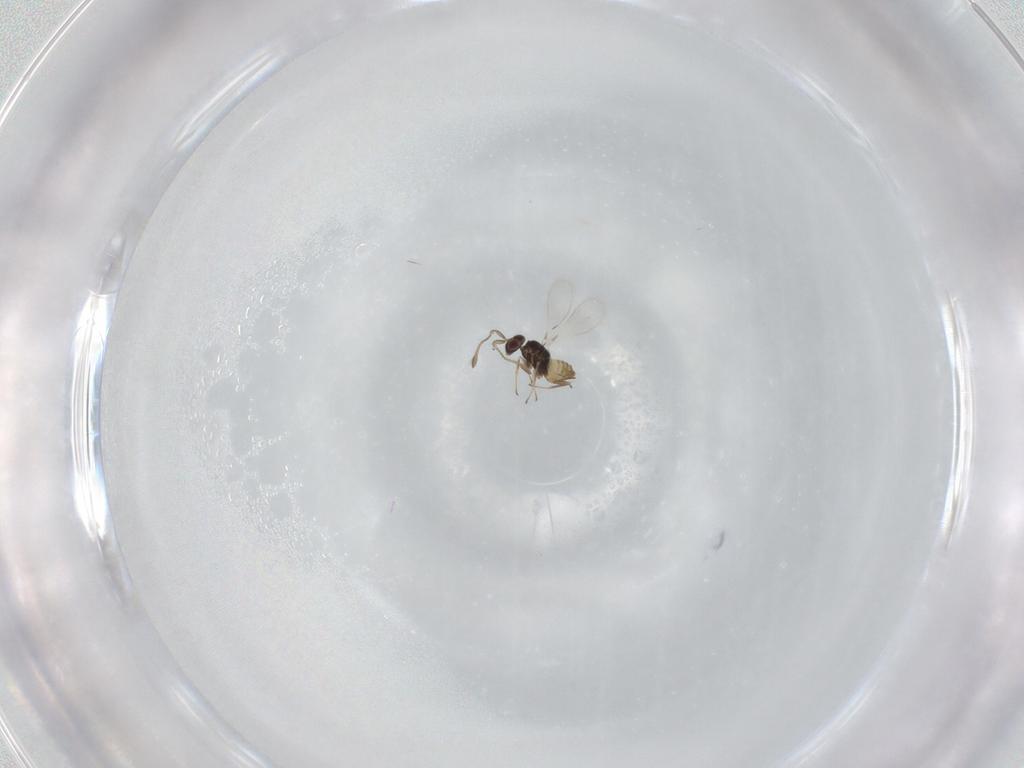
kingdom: Animalia
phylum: Arthropoda
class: Insecta
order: Hymenoptera
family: Mymaridae
